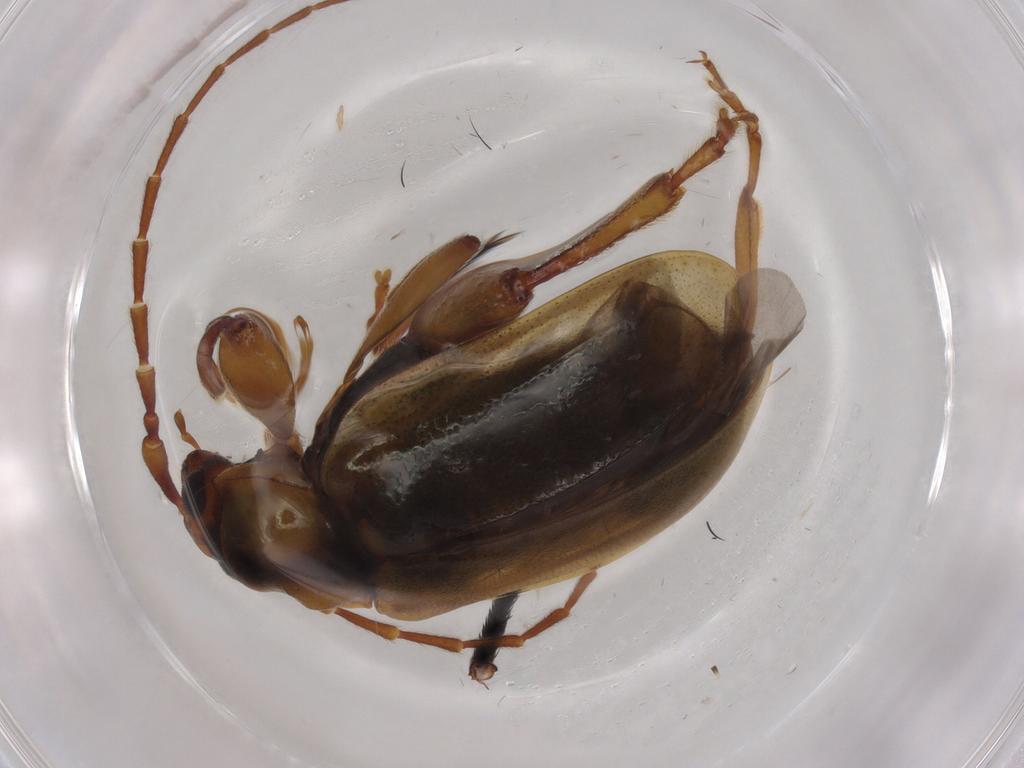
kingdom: Animalia
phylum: Arthropoda
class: Insecta
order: Coleoptera
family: Chrysomelidae
